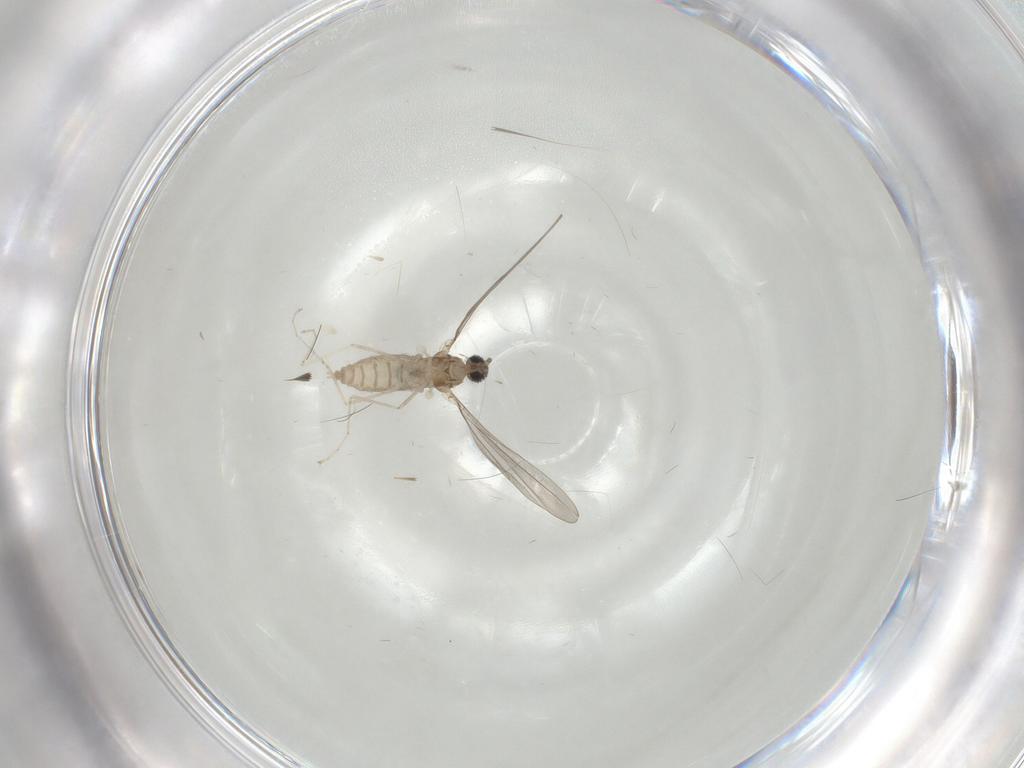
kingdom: Animalia
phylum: Arthropoda
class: Insecta
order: Diptera
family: Cecidomyiidae
